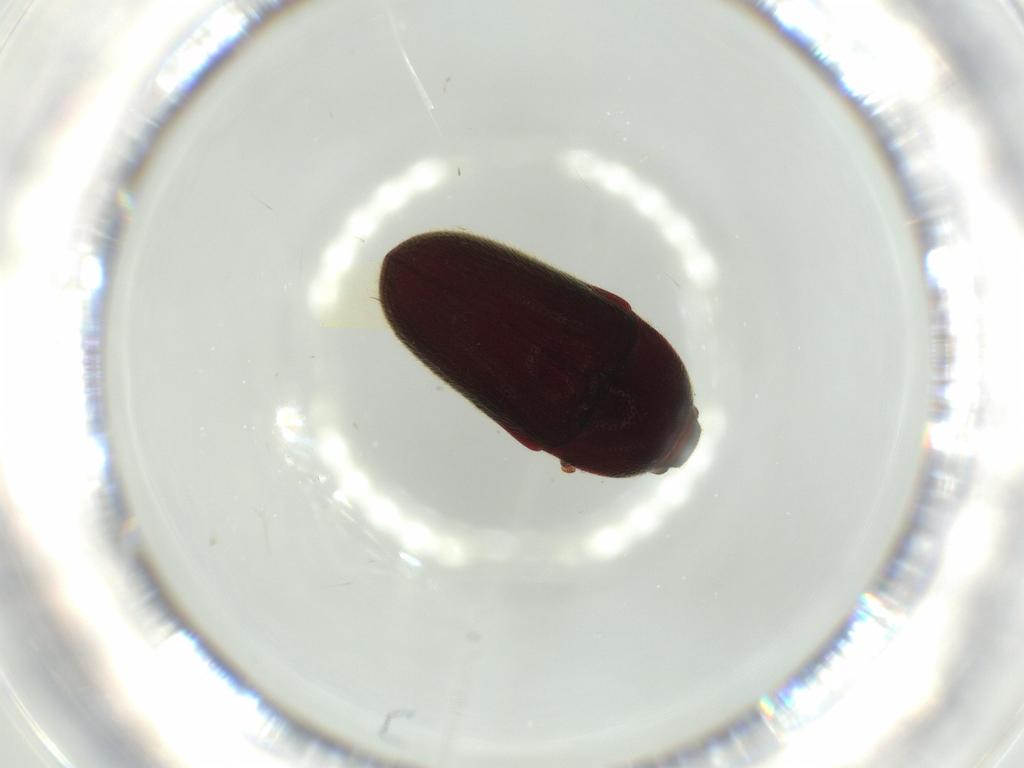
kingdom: Animalia
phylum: Arthropoda
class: Insecta
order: Coleoptera
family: Throscidae
